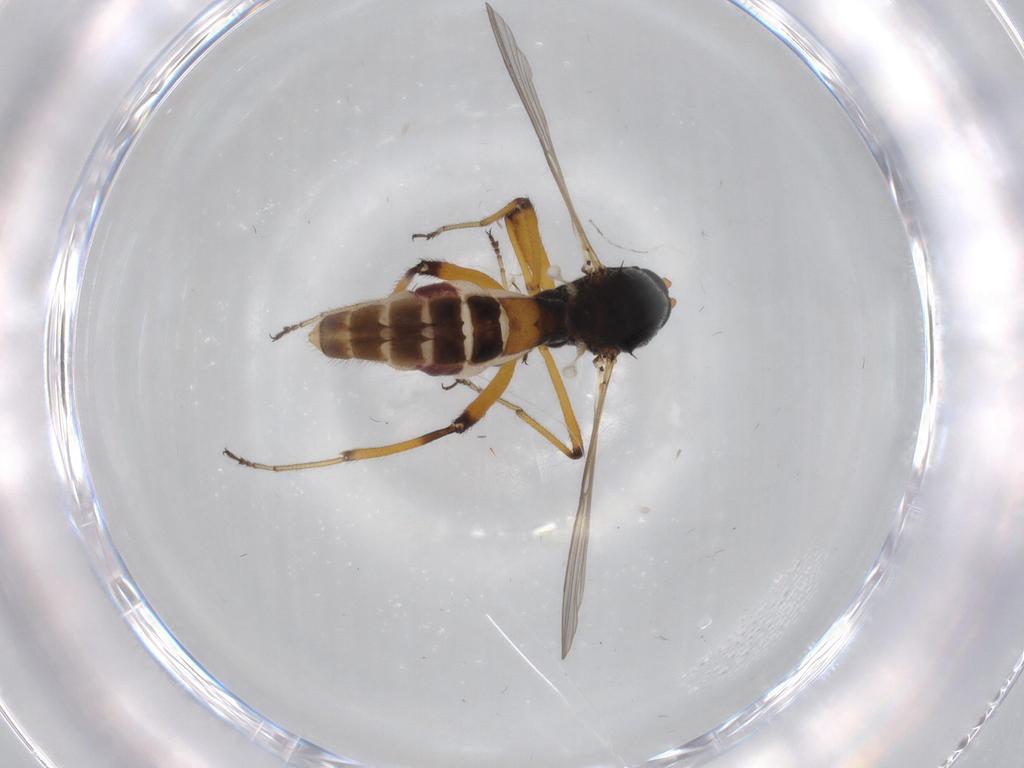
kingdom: Animalia
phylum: Arthropoda
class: Insecta
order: Diptera
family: Ceratopogonidae
